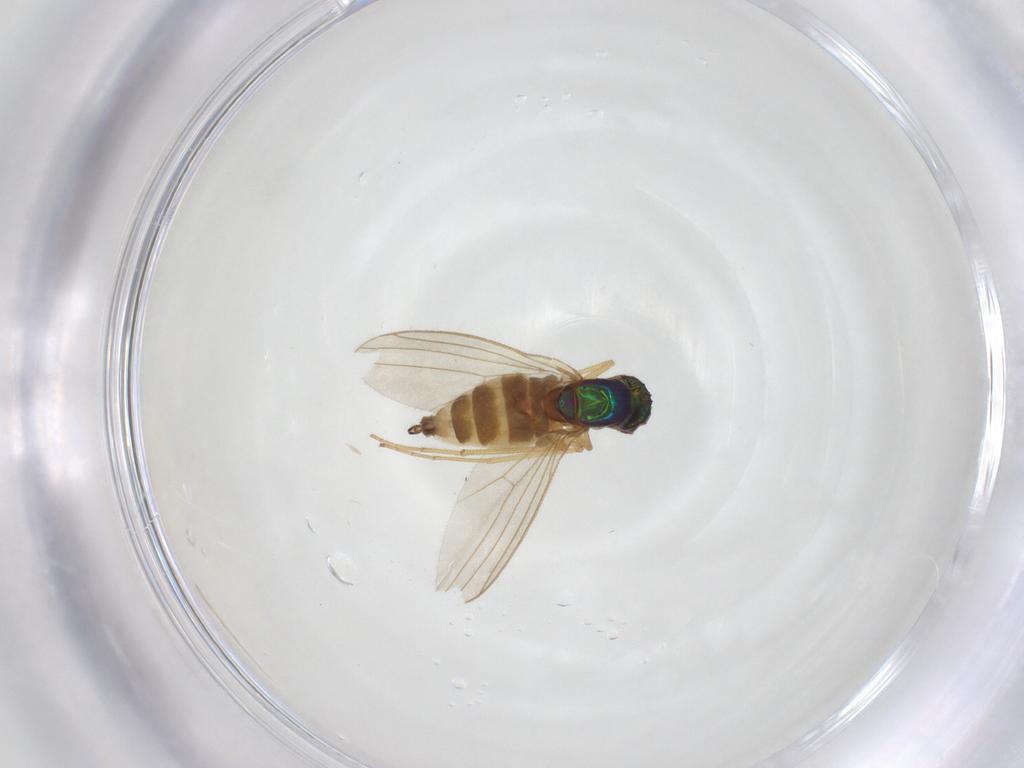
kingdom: Animalia
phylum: Arthropoda
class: Insecta
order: Diptera
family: Dolichopodidae
